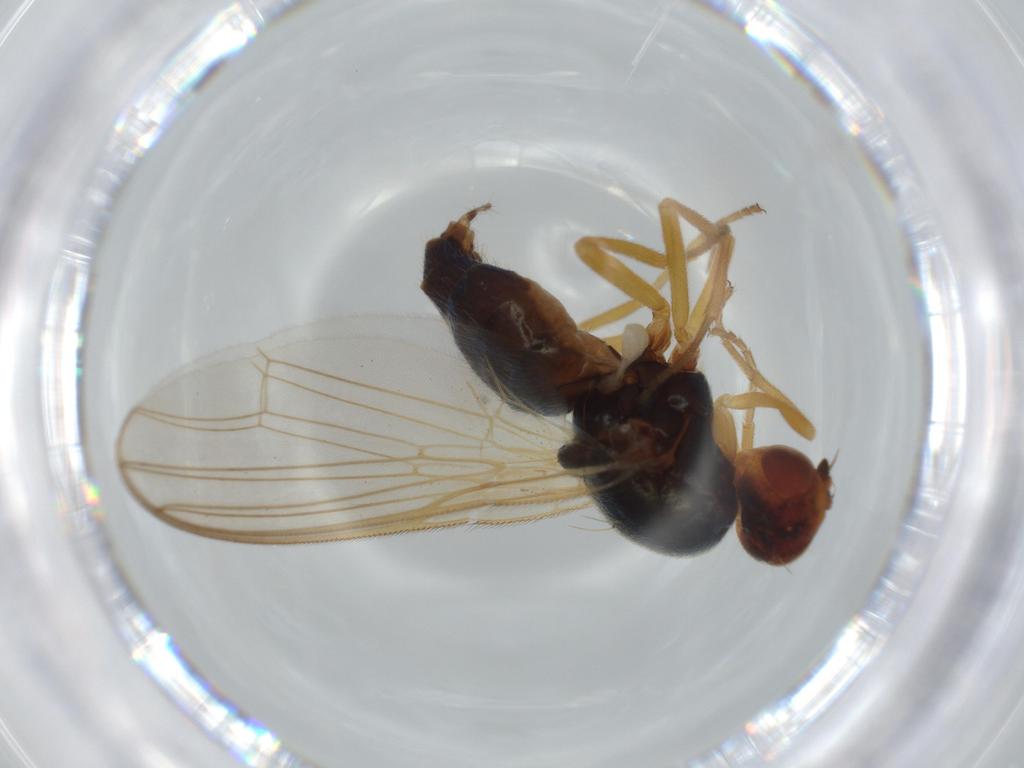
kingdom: Animalia
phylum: Arthropoda
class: Insecta
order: Diptera
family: Psilidae
